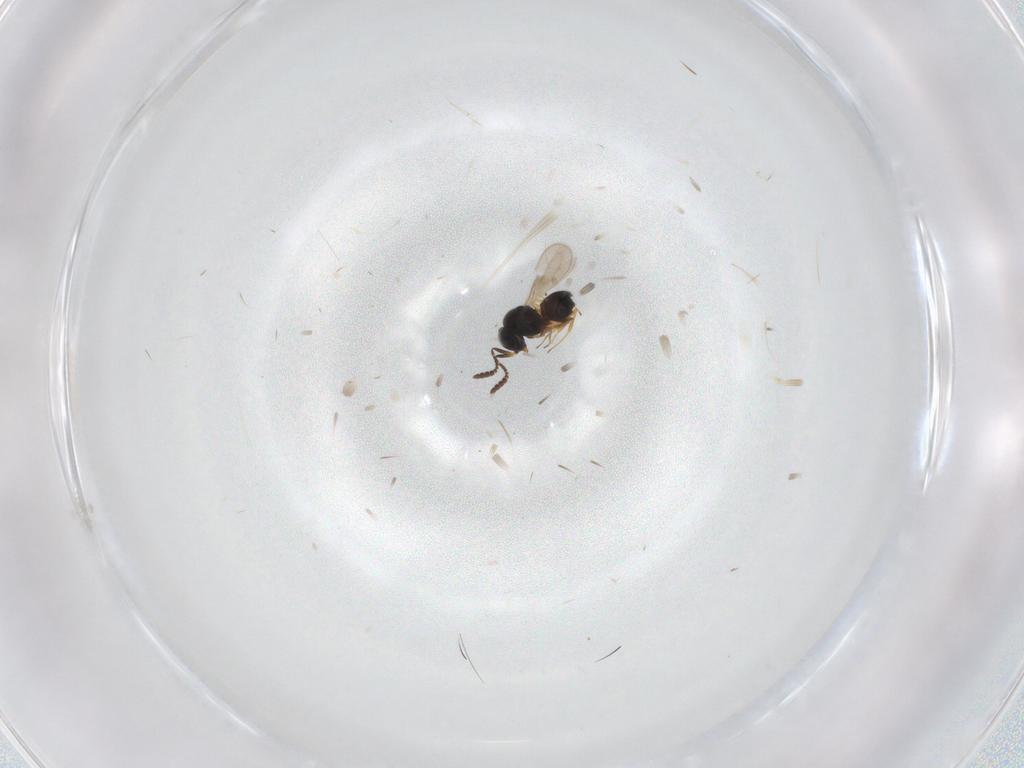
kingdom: Animalia
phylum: Arthropoda
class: Insecta
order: Hymenoptera
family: Scelionidae
